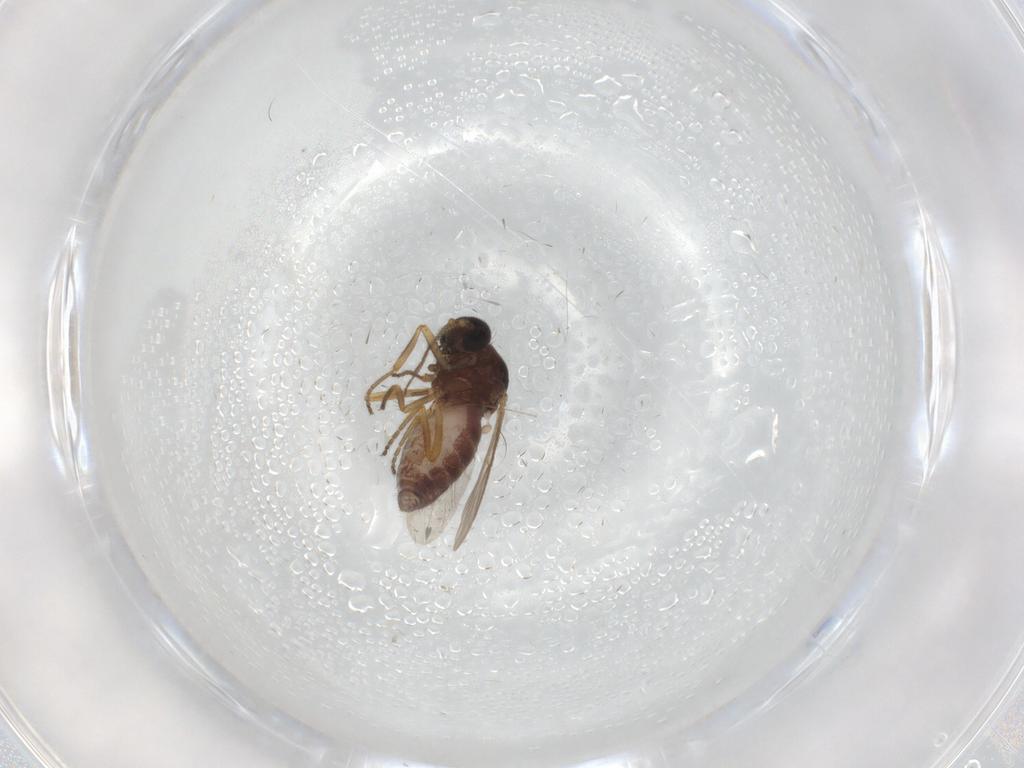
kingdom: Animalia
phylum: Arthropoda
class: Insecta
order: Diptera
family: Ceratopogonidae
